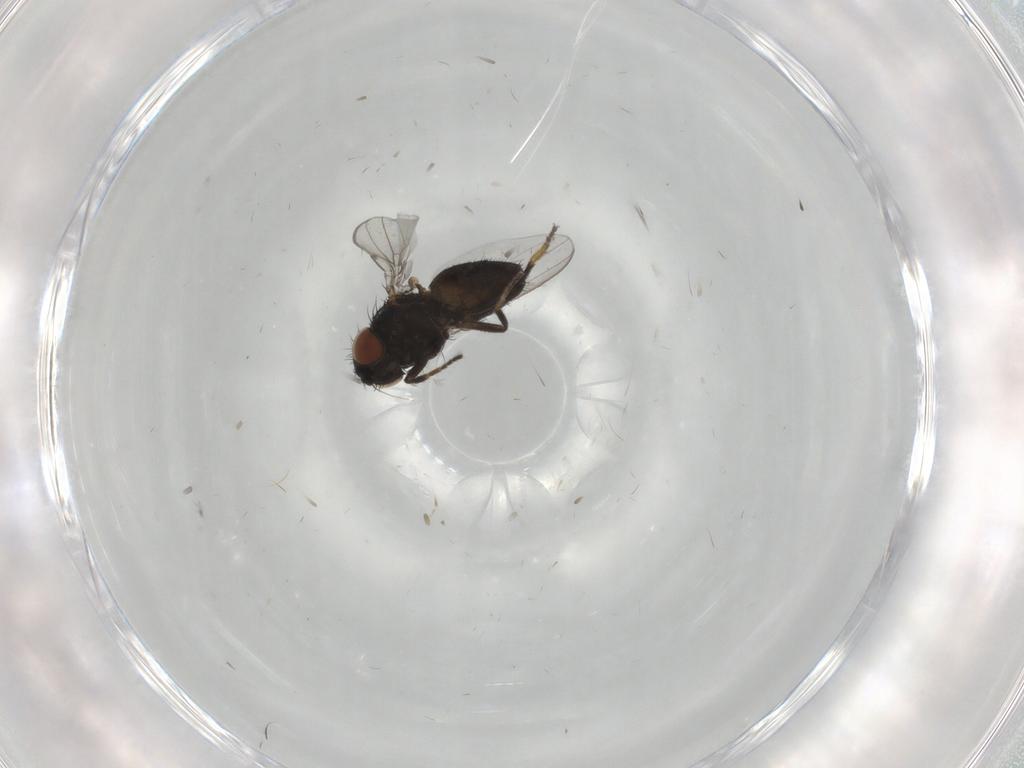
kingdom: Animalia
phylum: Arthropoda
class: Insecta
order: Diptera
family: Milichiidae
